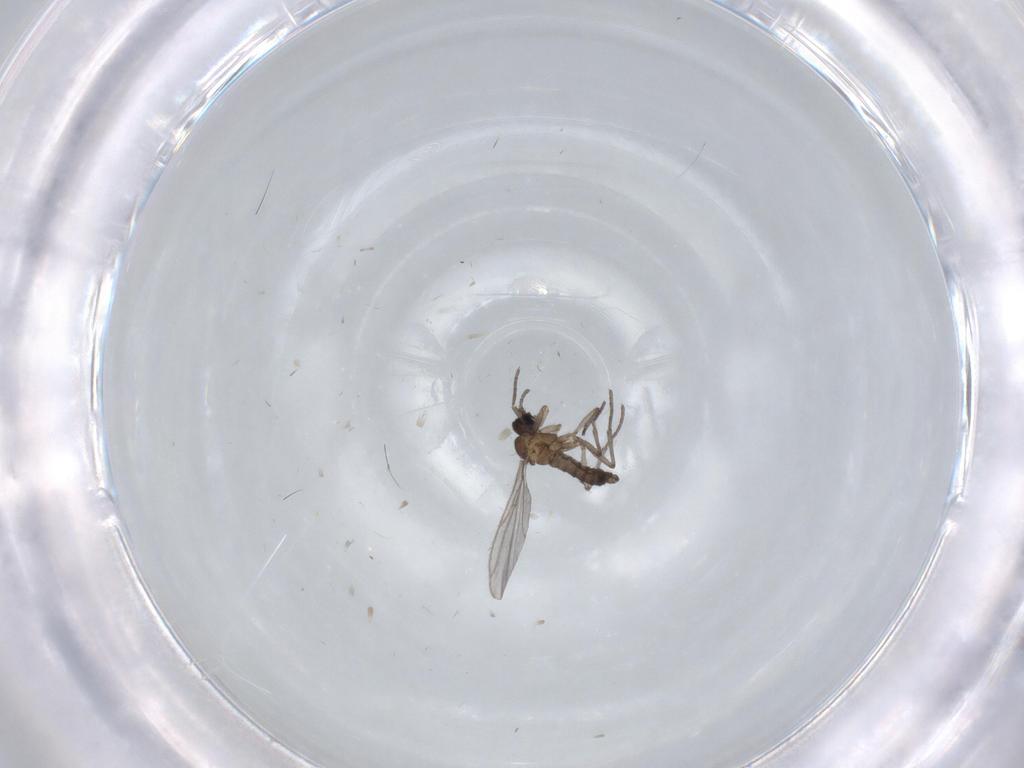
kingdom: Animalia
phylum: Arthropoda
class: Insecta
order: Diptera
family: Sciaridae
